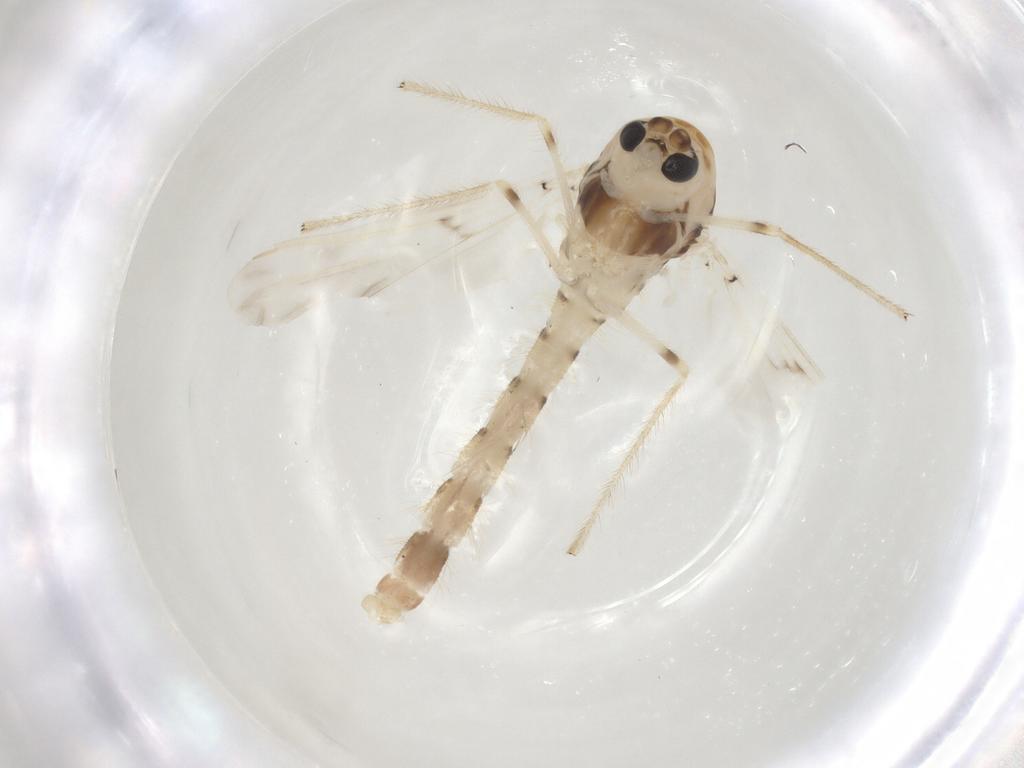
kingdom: Animalia
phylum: Arthropoda
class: Insecta
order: Diptera
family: Chironomidae
